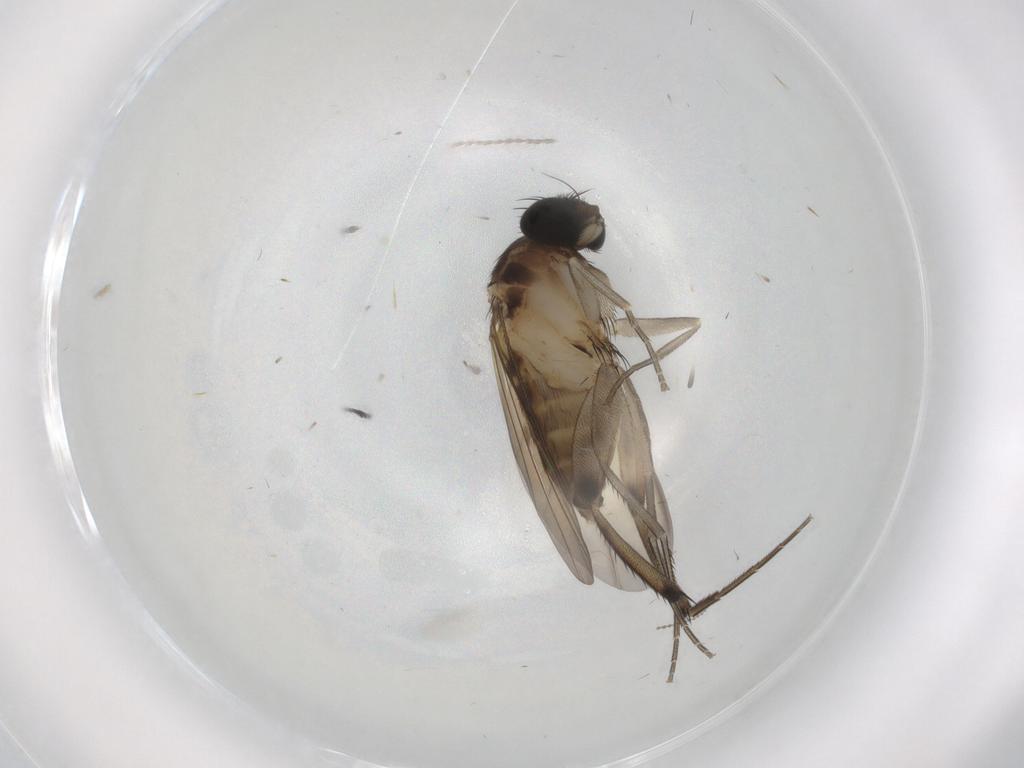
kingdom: Animalia
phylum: Arthropoda
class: Insecta
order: Diptera
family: Phoridae
